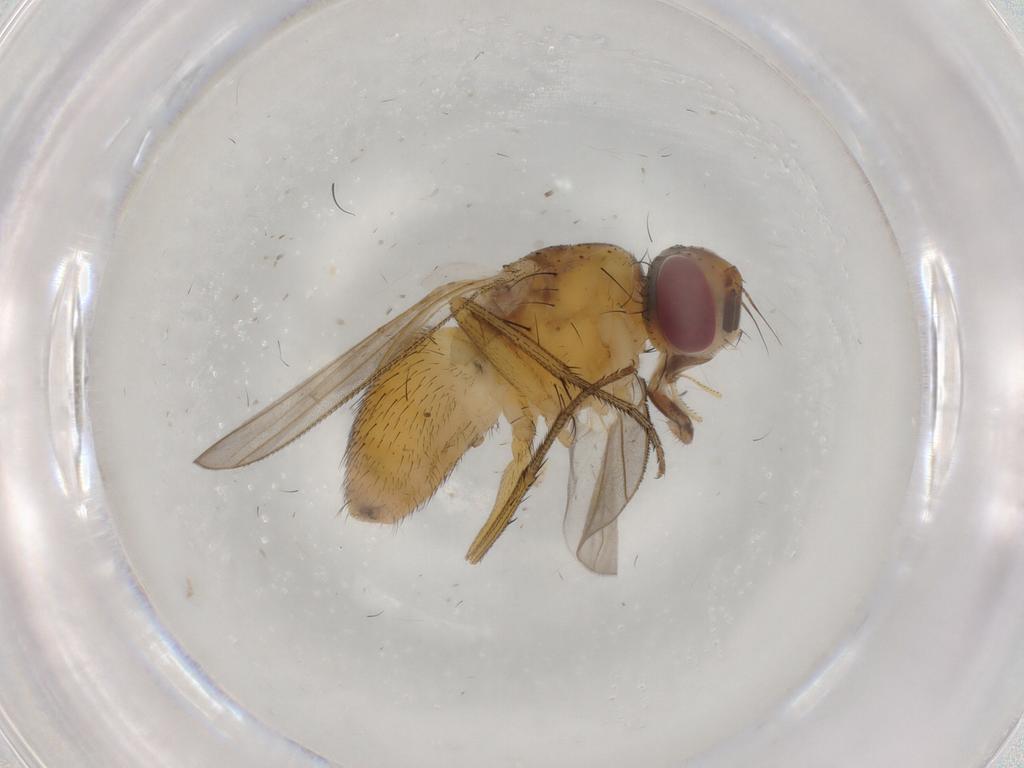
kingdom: Animalia
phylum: Arthropoda
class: Insecta
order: Diptera
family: Muscidae
